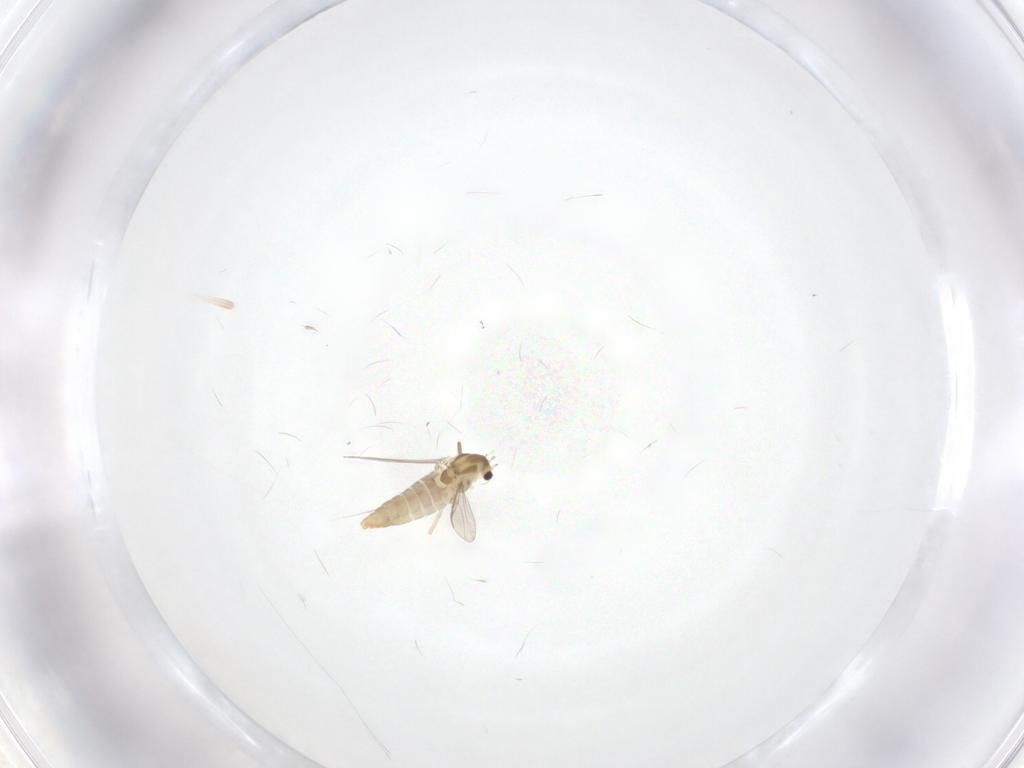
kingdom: Animalia
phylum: Arthropoda
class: Insecta
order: Diptera
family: Chironomidae
